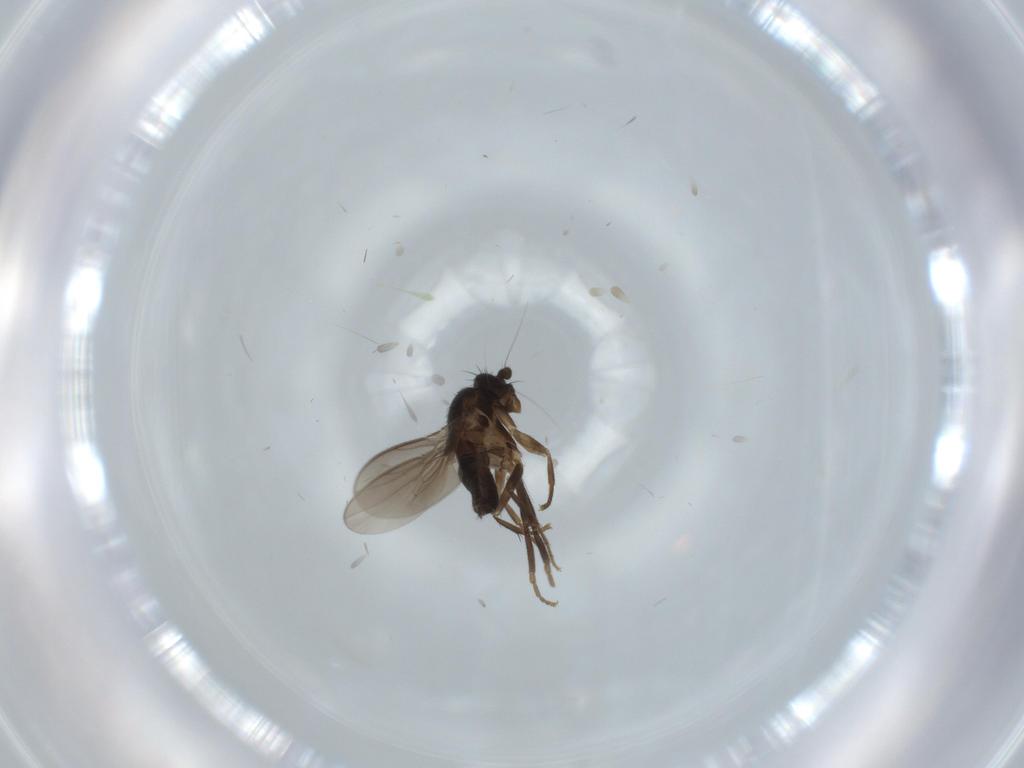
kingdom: Animalia
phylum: Arthropoda
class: Insecta
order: Diptera
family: Sphaeroceridae
